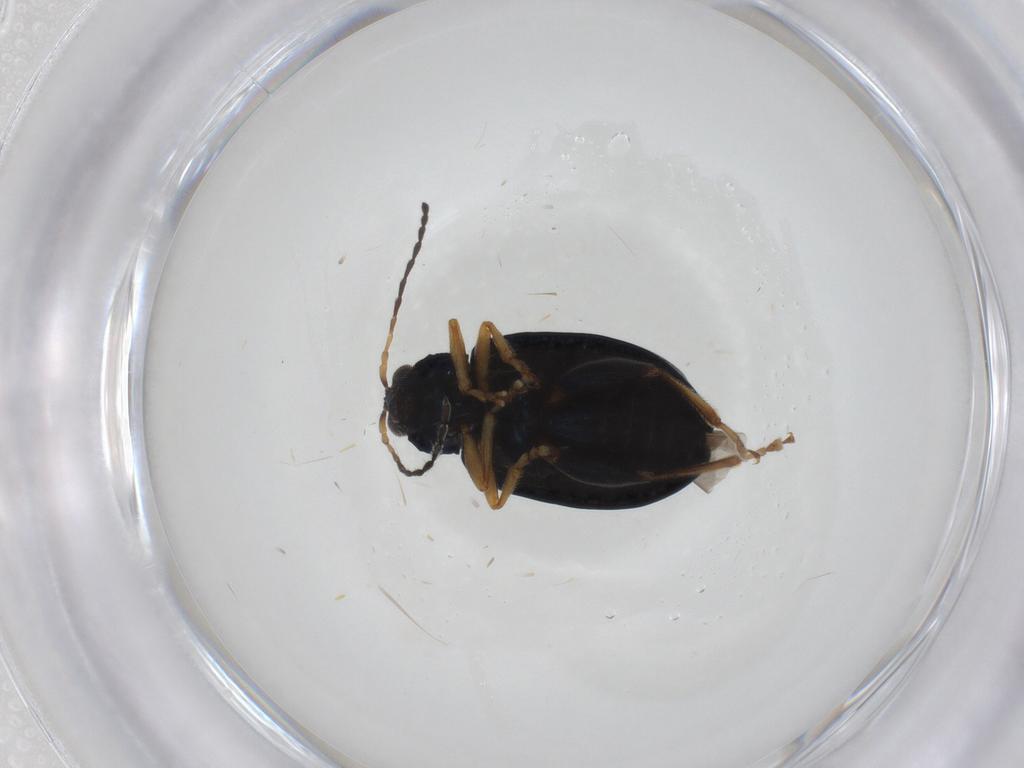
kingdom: Animalia
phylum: Arthropoda
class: Insecta
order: Coleoptera
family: Chrysomelidae
